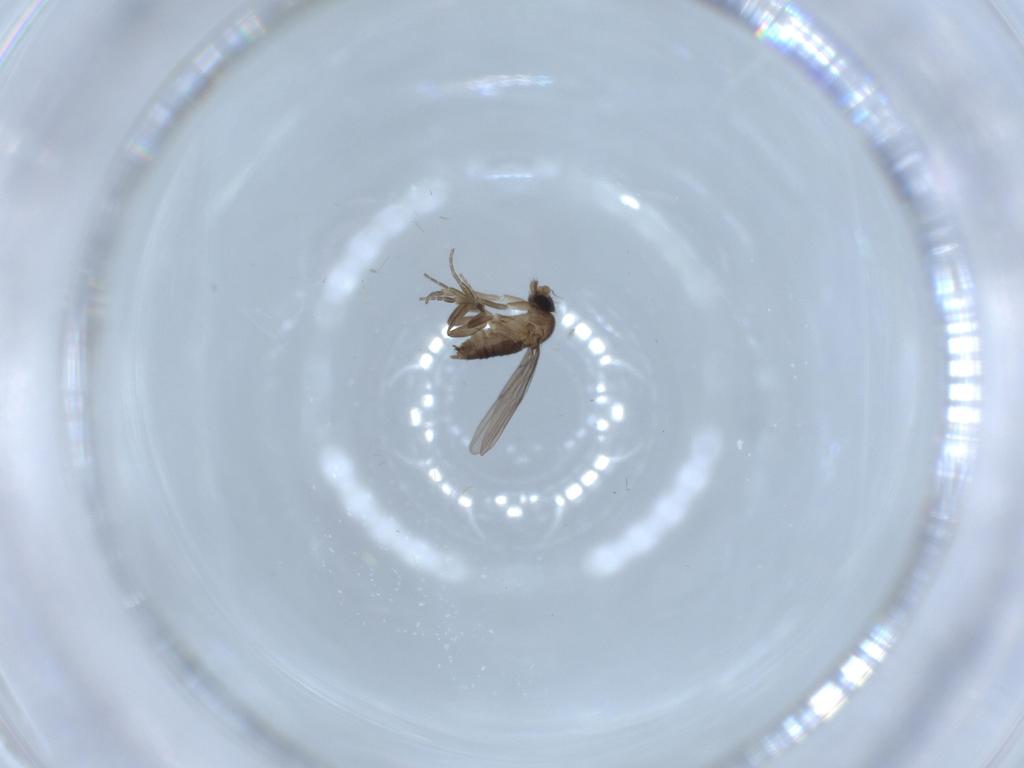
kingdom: Animalia
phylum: Arthropoda
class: Insecta
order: Diptera
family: Phoridae
